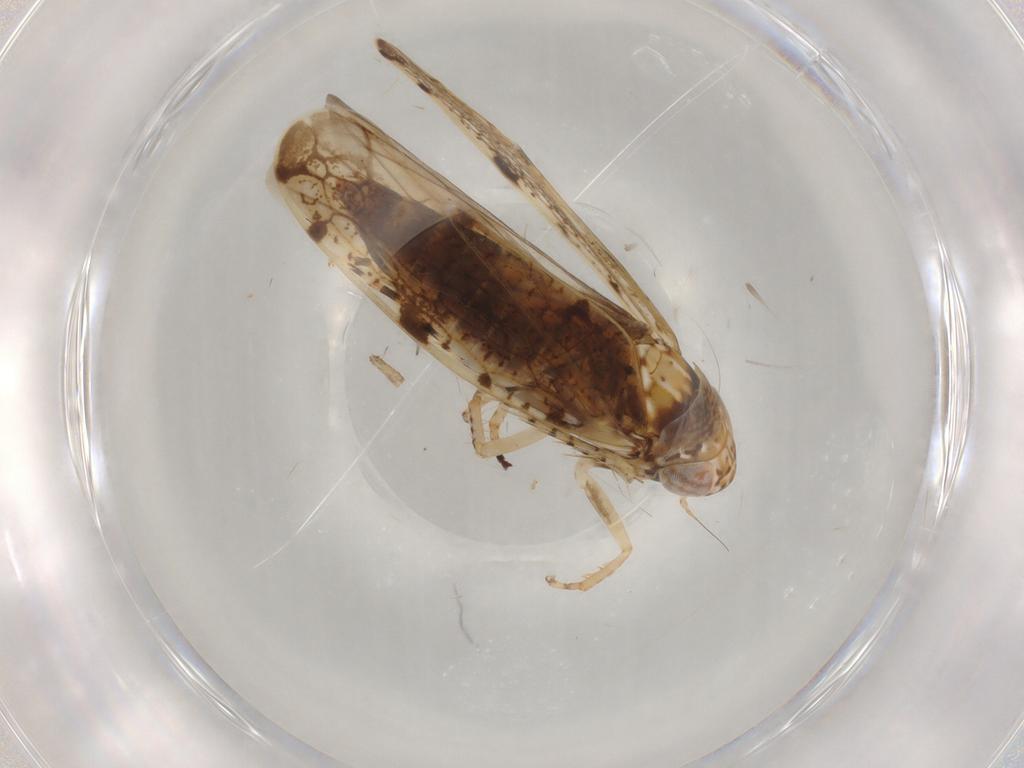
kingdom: Animalia
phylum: Arthropoda
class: Insecta
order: Hemiptera
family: Cicadellidae
